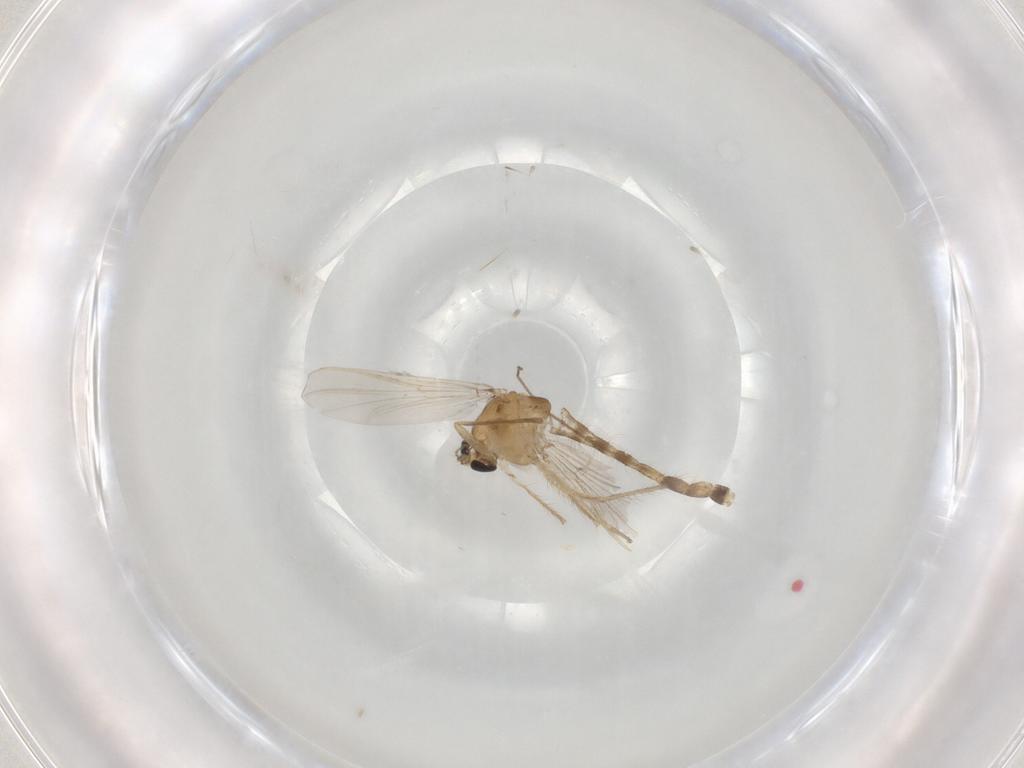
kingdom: Animalia
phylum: Arthropoda
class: Insecta
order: Diptera
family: Chironomidae
